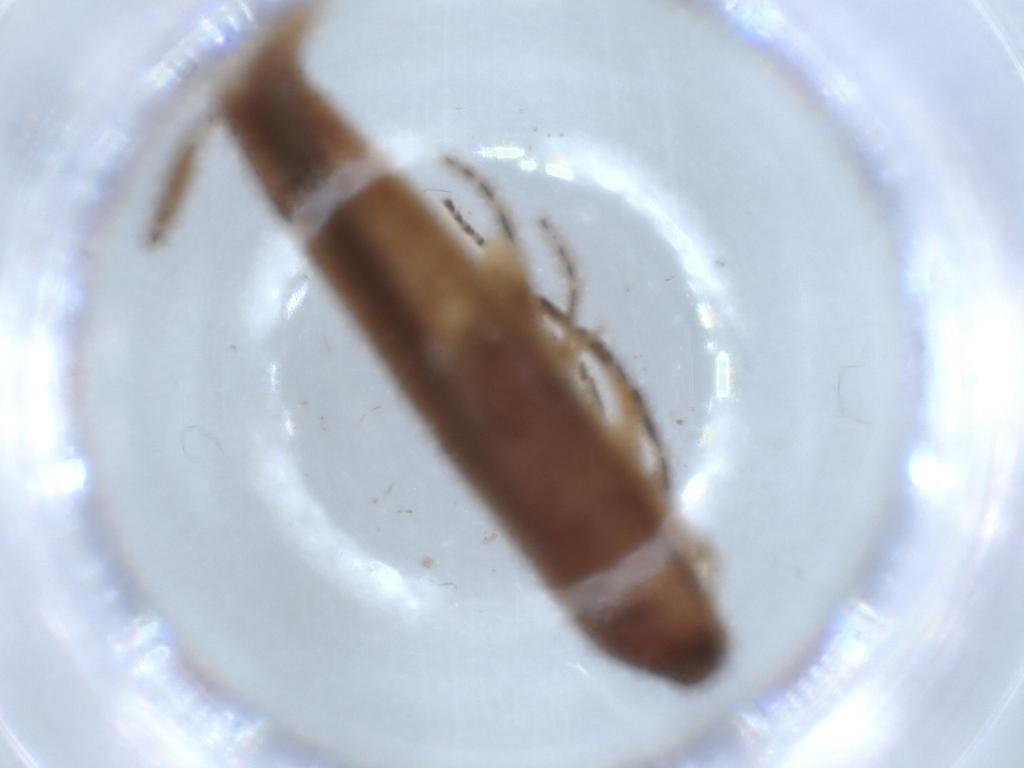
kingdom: Animalia
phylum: Arthropoda
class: Insecta
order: Lepidoptera
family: Stathmopodidae
